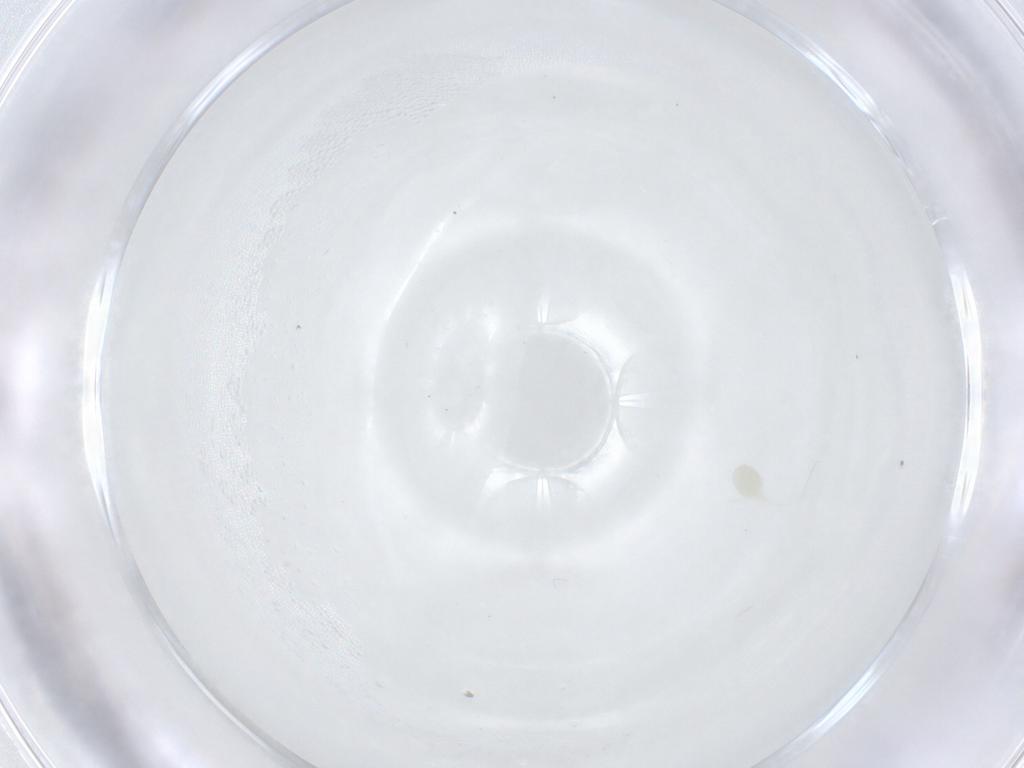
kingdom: Animalia
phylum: Arthropoda
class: Insecta
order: Diptera
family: Chironomidae
